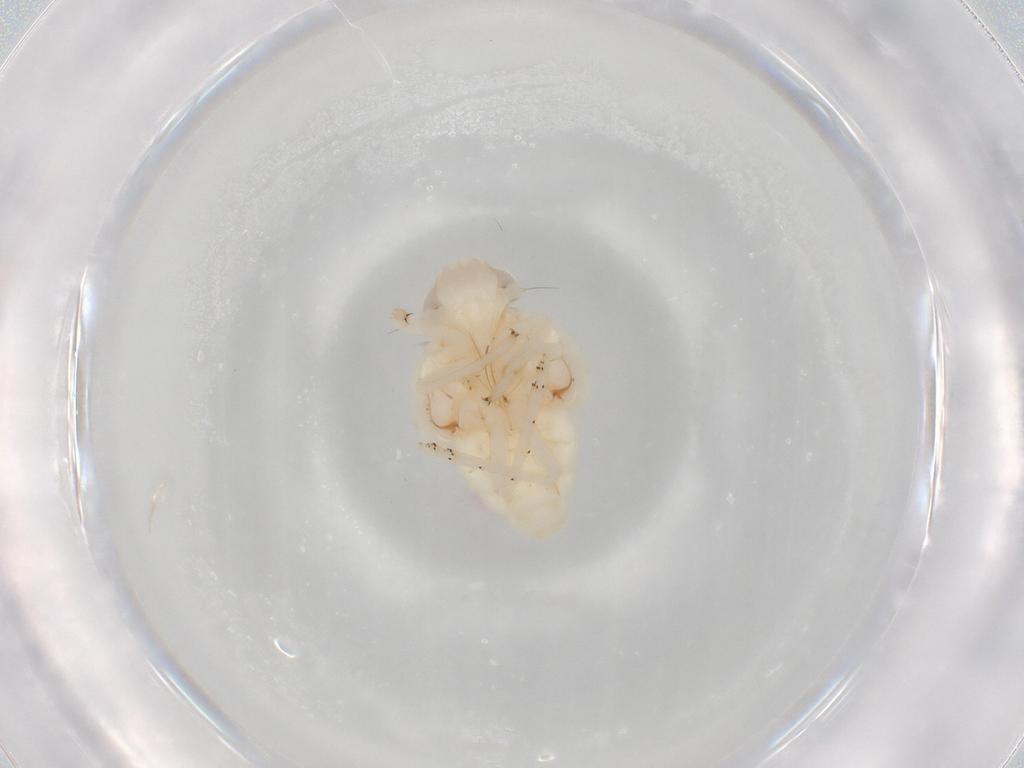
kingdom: Animalia
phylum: Arthropoda
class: Insecta
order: Hemiptera
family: Nogodinidae
